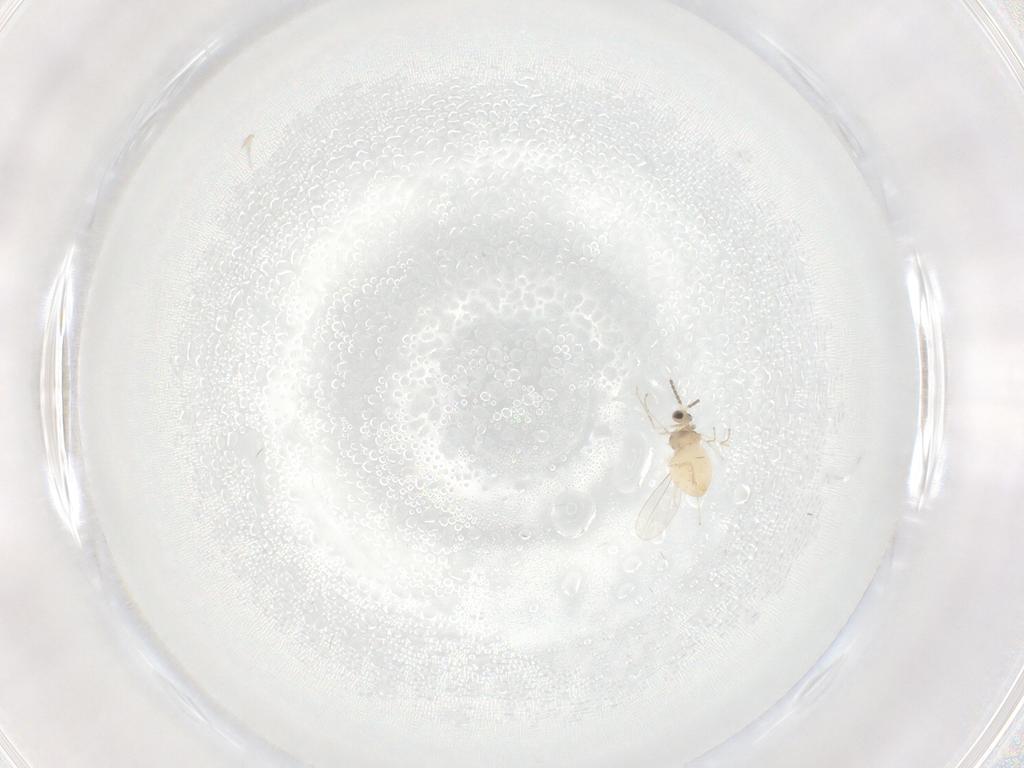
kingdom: Animalia
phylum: Arthropoda
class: Insecta
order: Diptera
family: Cecidomyiidae
